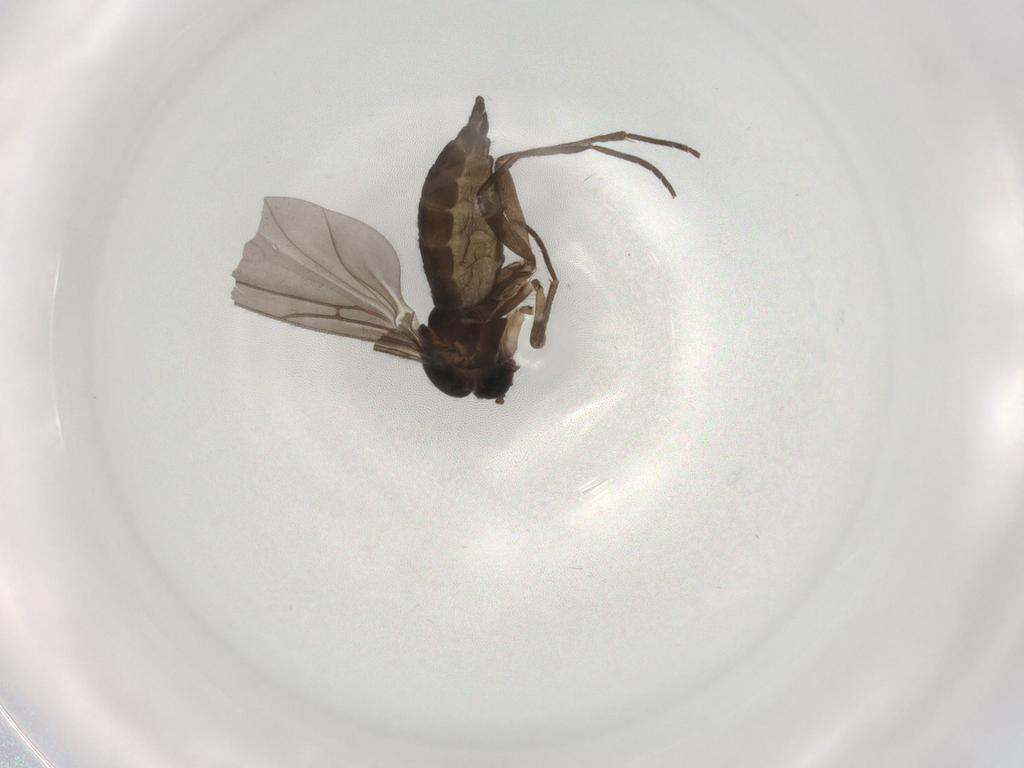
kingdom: Animalia
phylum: Arthropoda
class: Insecta
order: Diptera
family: Sciaridae
